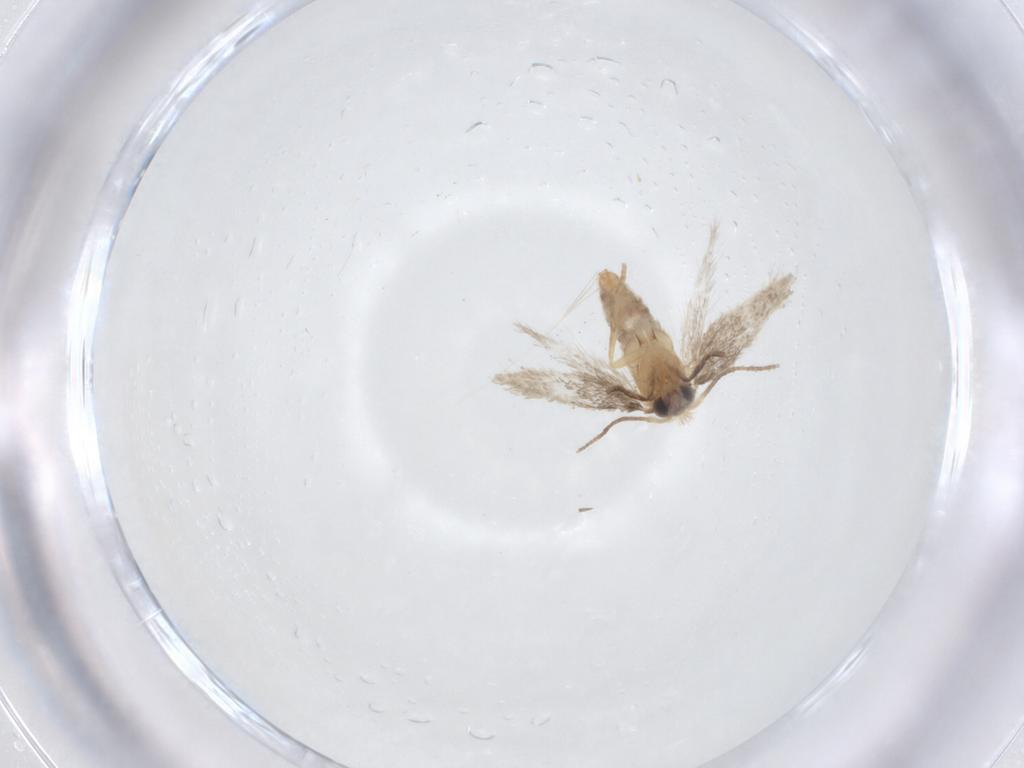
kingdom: Animalia
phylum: Arthropoda
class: Insecta
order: Lepidoptera
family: Nepticulidae
